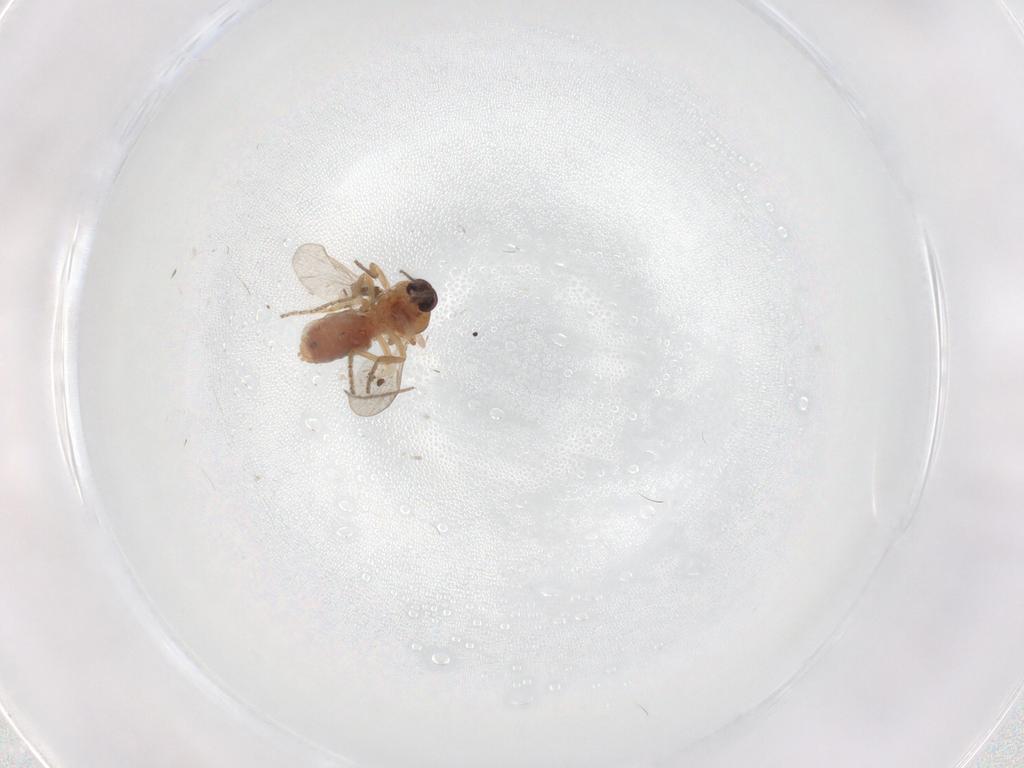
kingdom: Animalia
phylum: Arthropoda
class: Insecta
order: Diptera
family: Chironomidae
